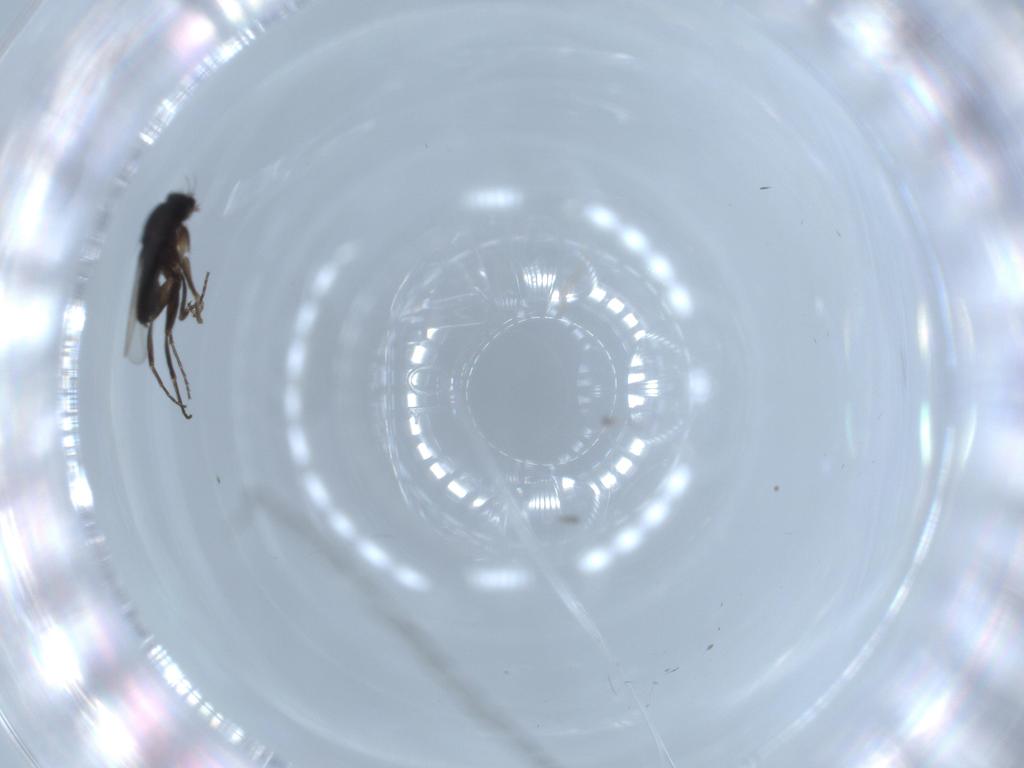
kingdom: Animalia
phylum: Arthropoda
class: Insecta
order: Diptera
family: Phoridae
